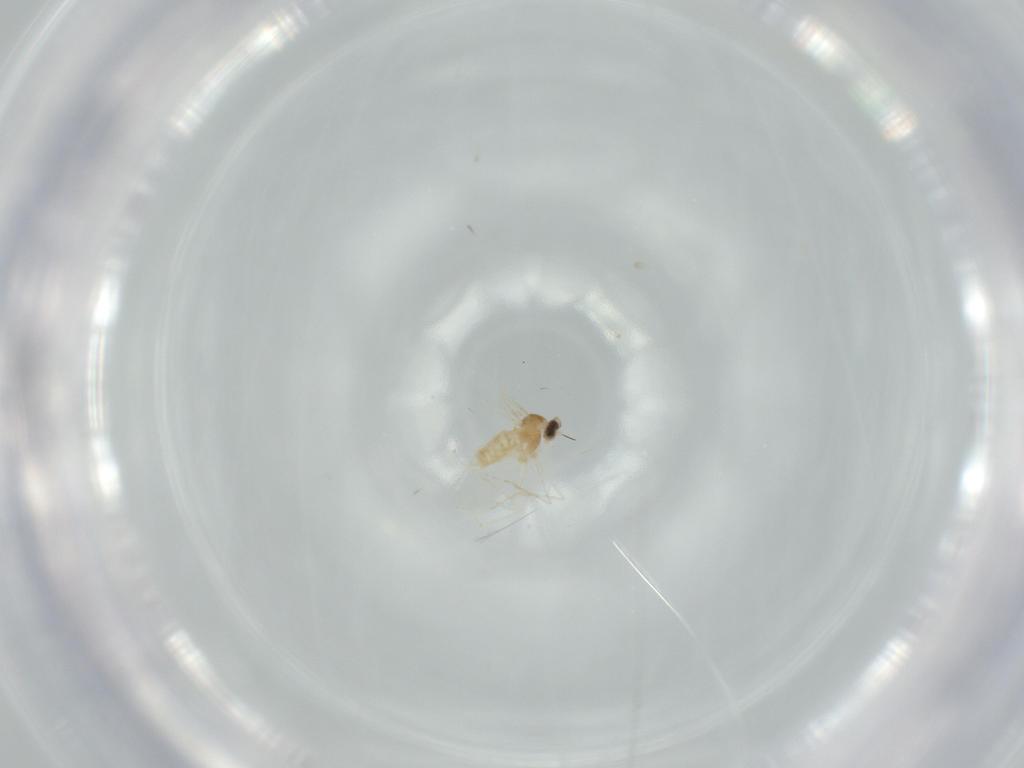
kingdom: Animalia
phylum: Arthropoda
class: Insecta
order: Diptera
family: Cecidomyiidae
